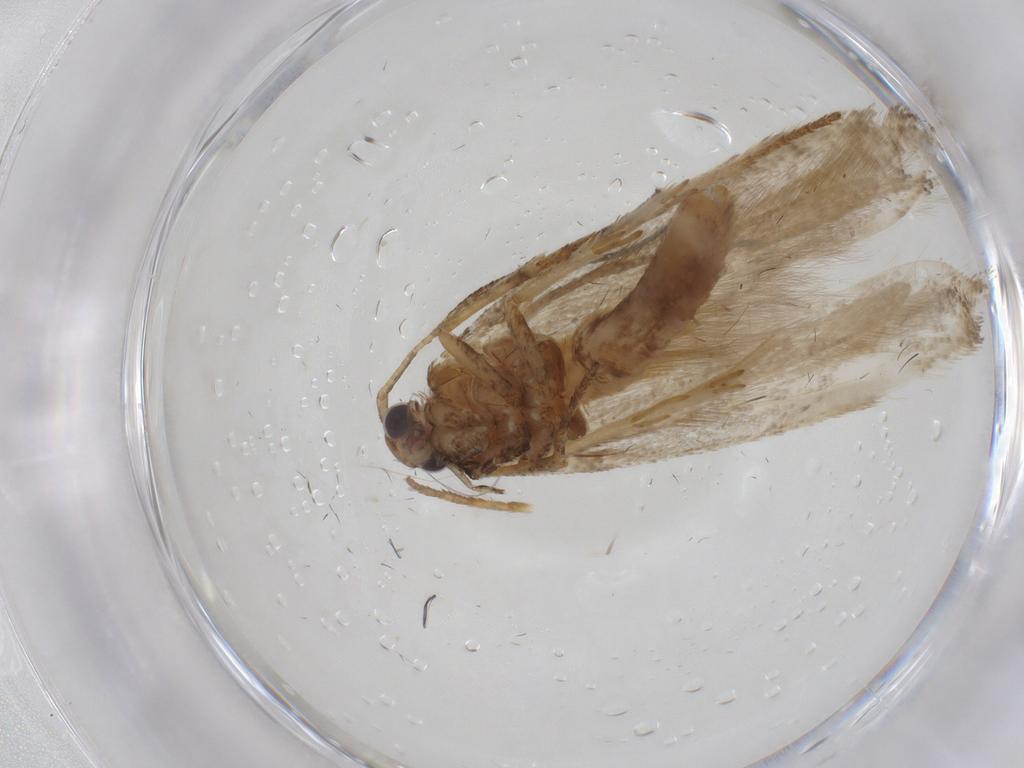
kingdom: Animalia
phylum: Arthropoda
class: Insecta
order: Lepidoptera
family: Gelechiidae
